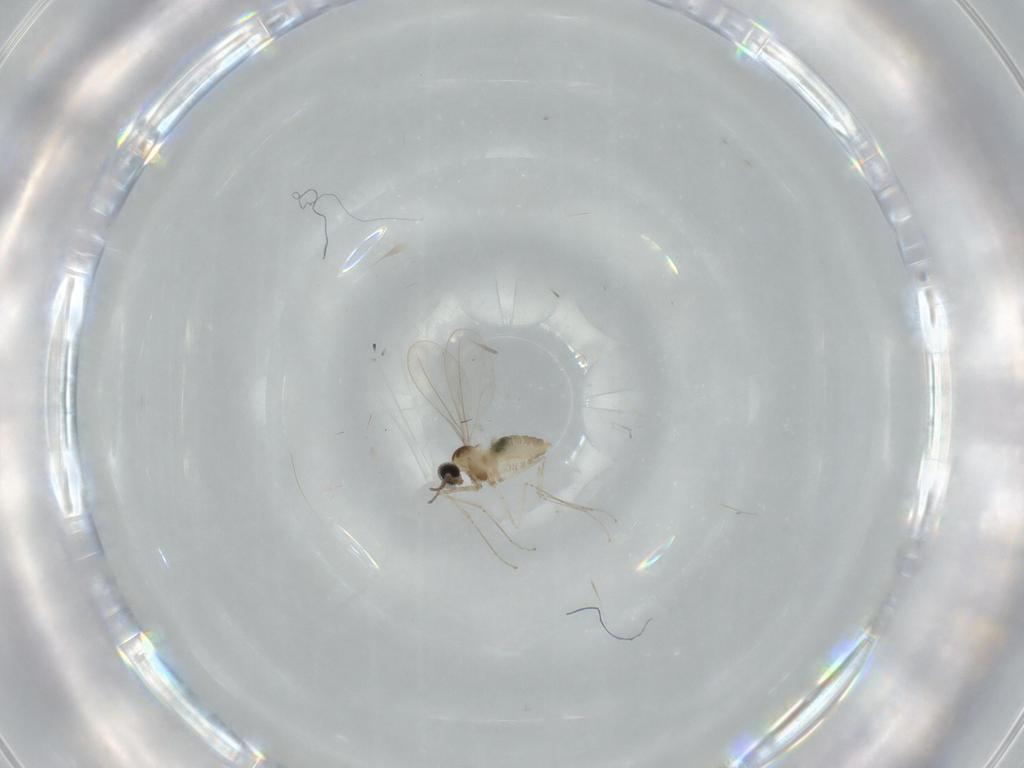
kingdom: Animalia
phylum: Arthropoda
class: Insecta
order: Diptera
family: Cecidomyiidae
